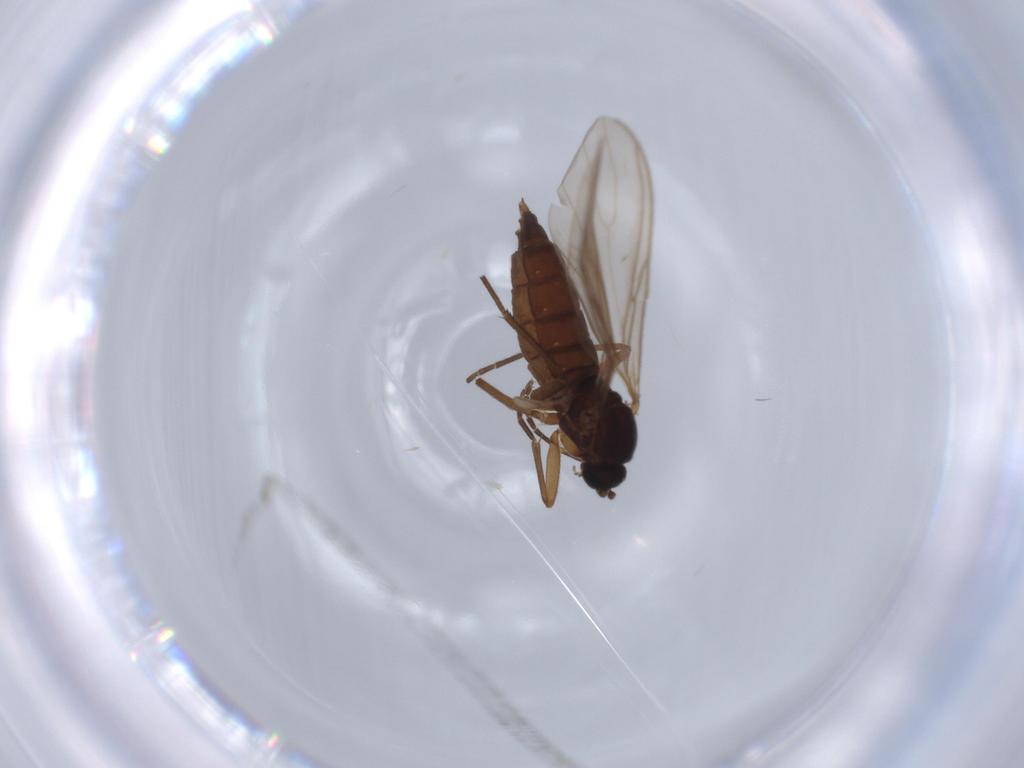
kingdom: Animalia
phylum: Arthropoda
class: Insecta
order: Diptera
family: Sciaridae
